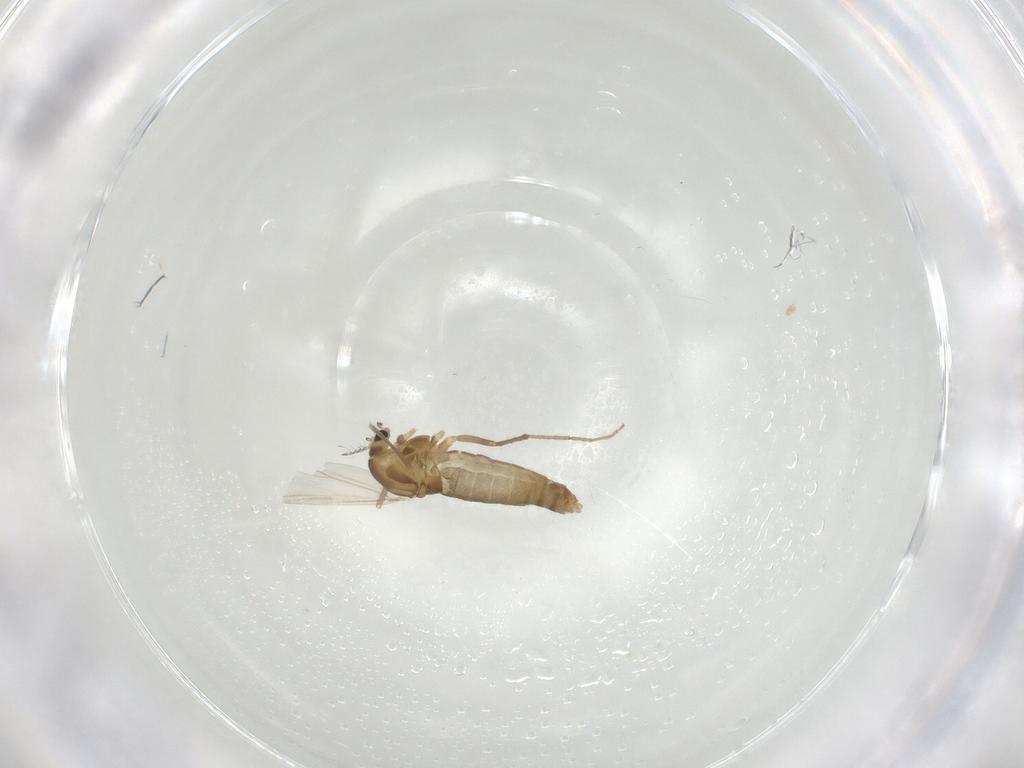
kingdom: Animalia
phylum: Arthropoda
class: Insecta
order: Diptera
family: Chironomidae
